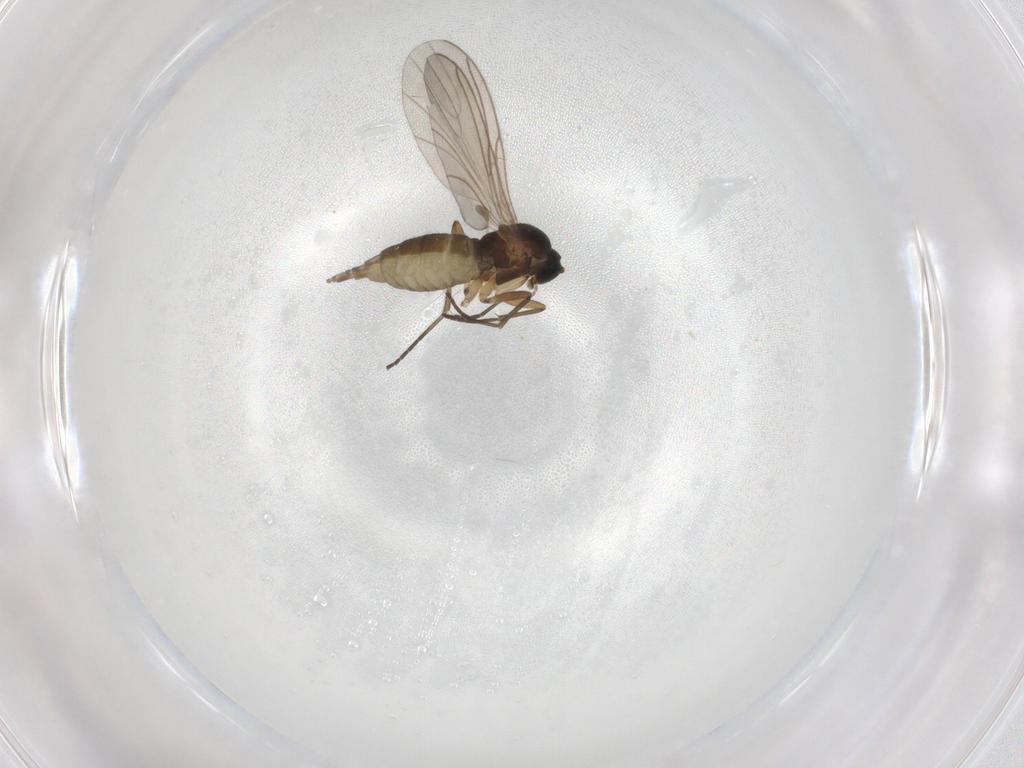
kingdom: Animalia
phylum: Arthropoda
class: Insecta
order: Diptera
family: Sciaridae
